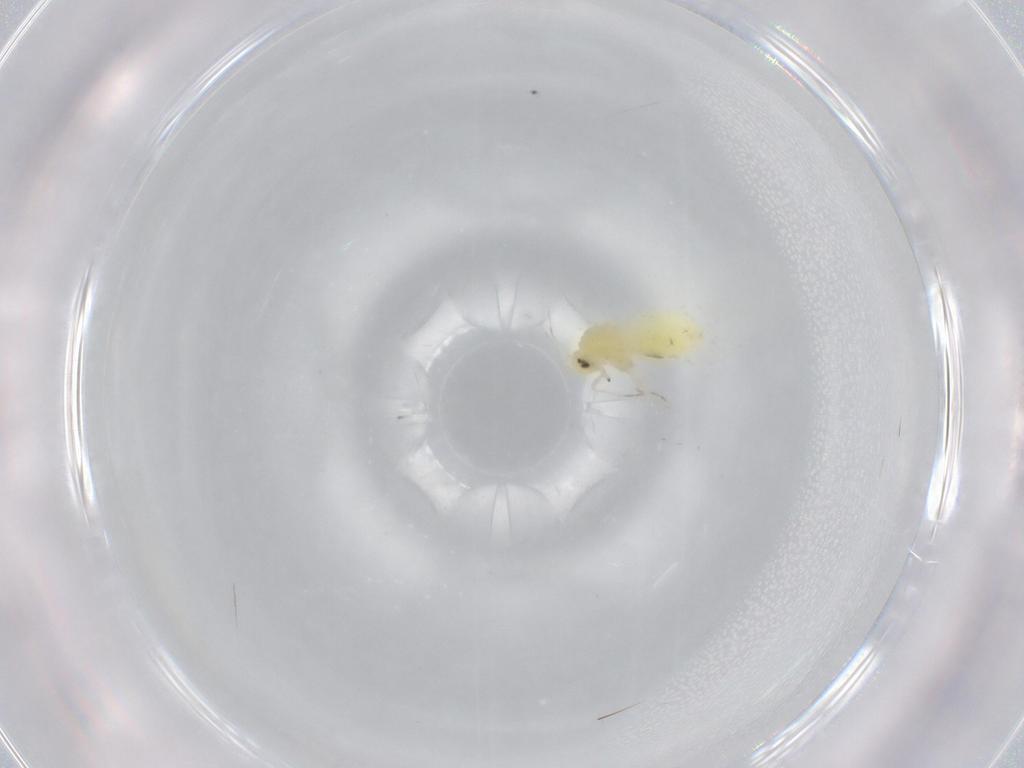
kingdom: Animalia
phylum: Arthropoda
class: Insecta
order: Hemiptera
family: Aleyrodidae
